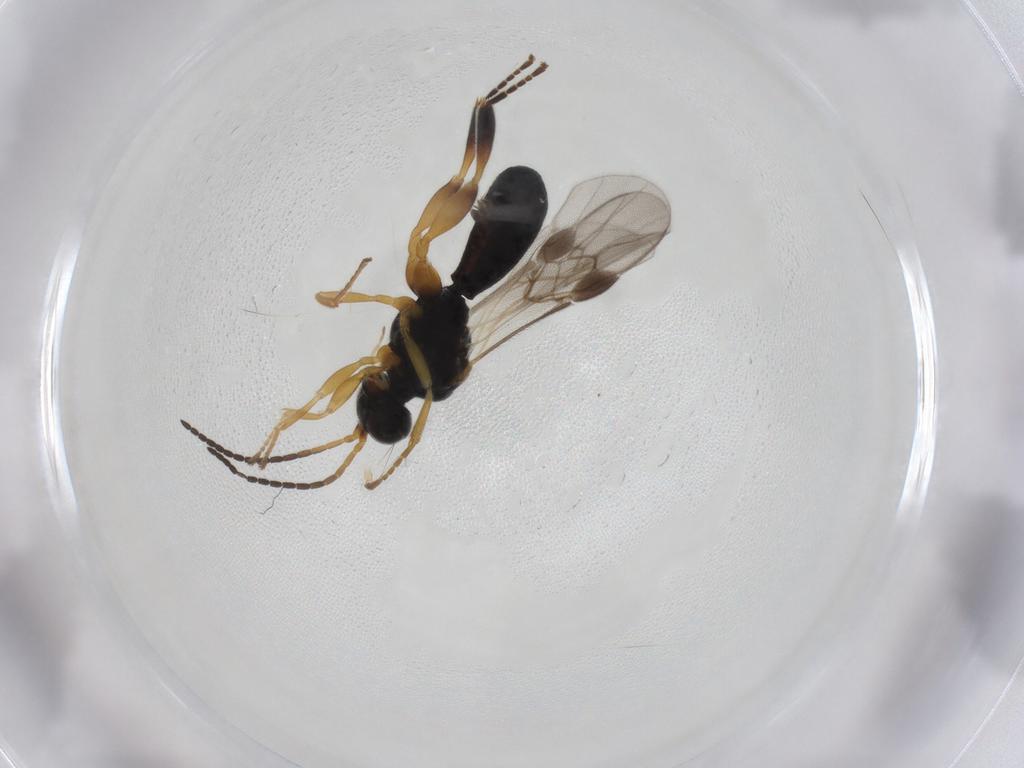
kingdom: Animalia
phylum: Arthropoda
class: Insecta
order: Hymenoptera
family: Braconidae
